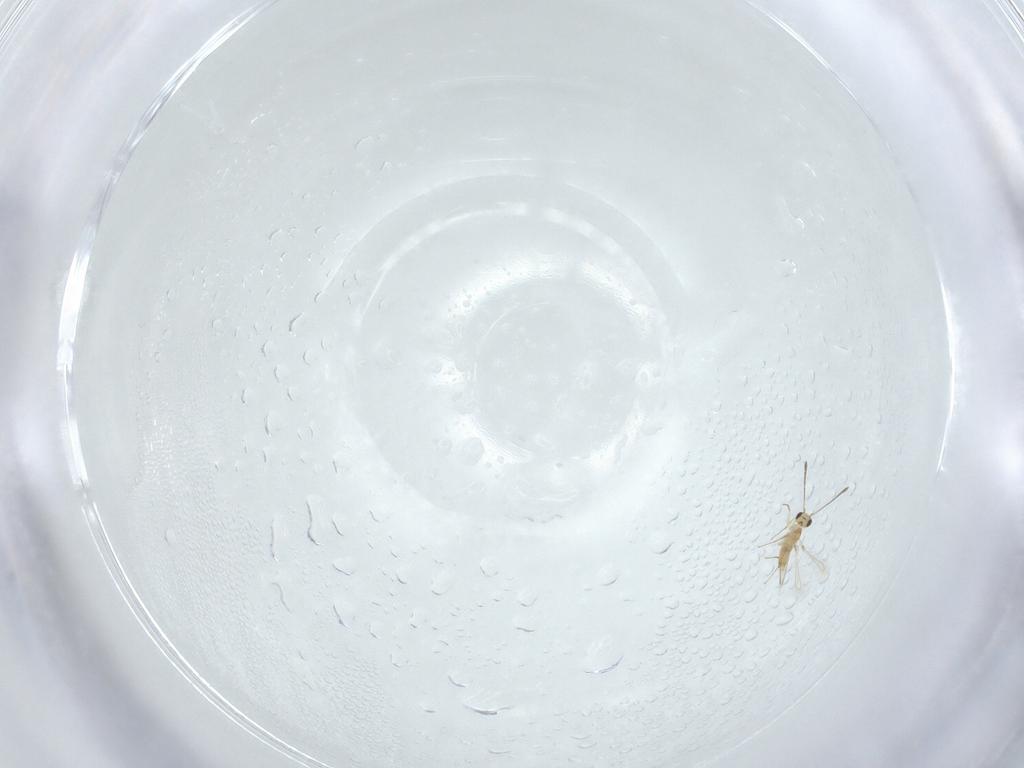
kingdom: Animalia
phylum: Arthropoda
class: Insecta
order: Hymenoptera
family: Mymaridae
